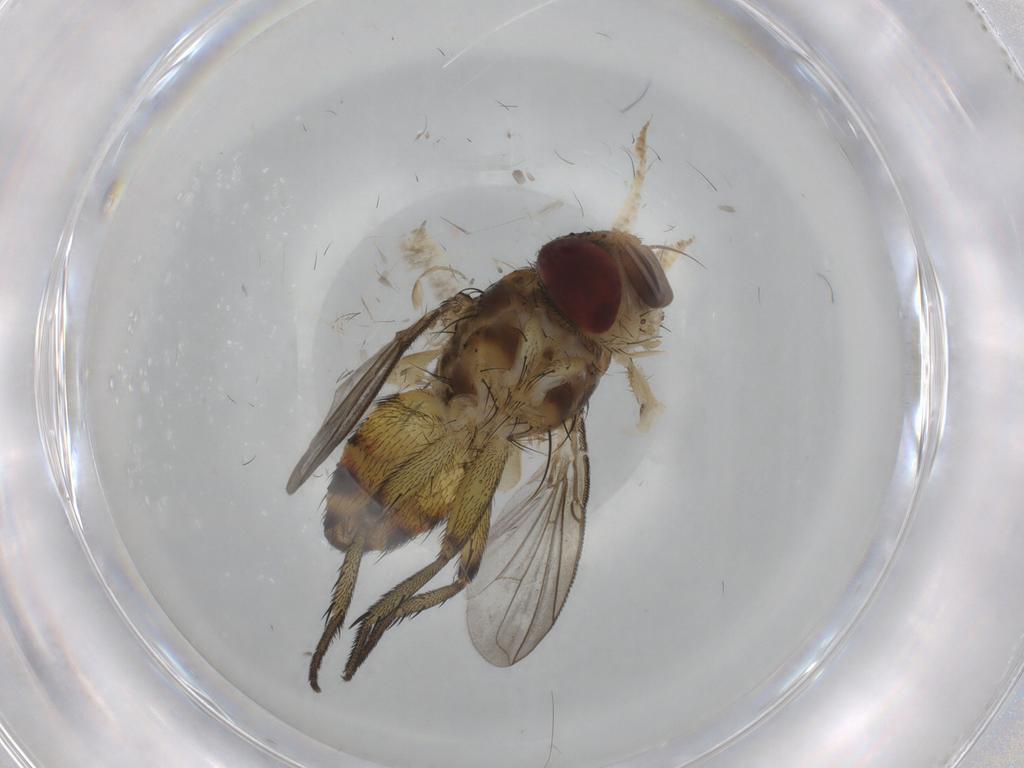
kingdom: Animalia
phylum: Arthropoda
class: Insecta
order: Diptera
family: Tachinidae
